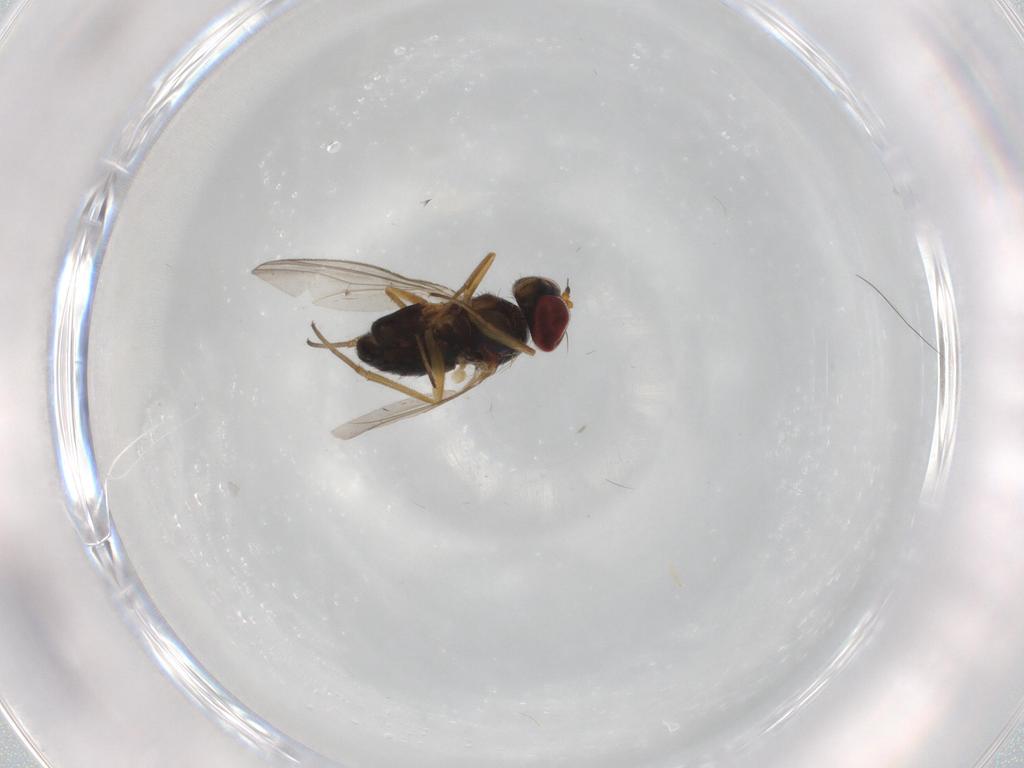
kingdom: Animalia
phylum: Arthropoda
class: Insecta
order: Diptera
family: Dolichopodidae
